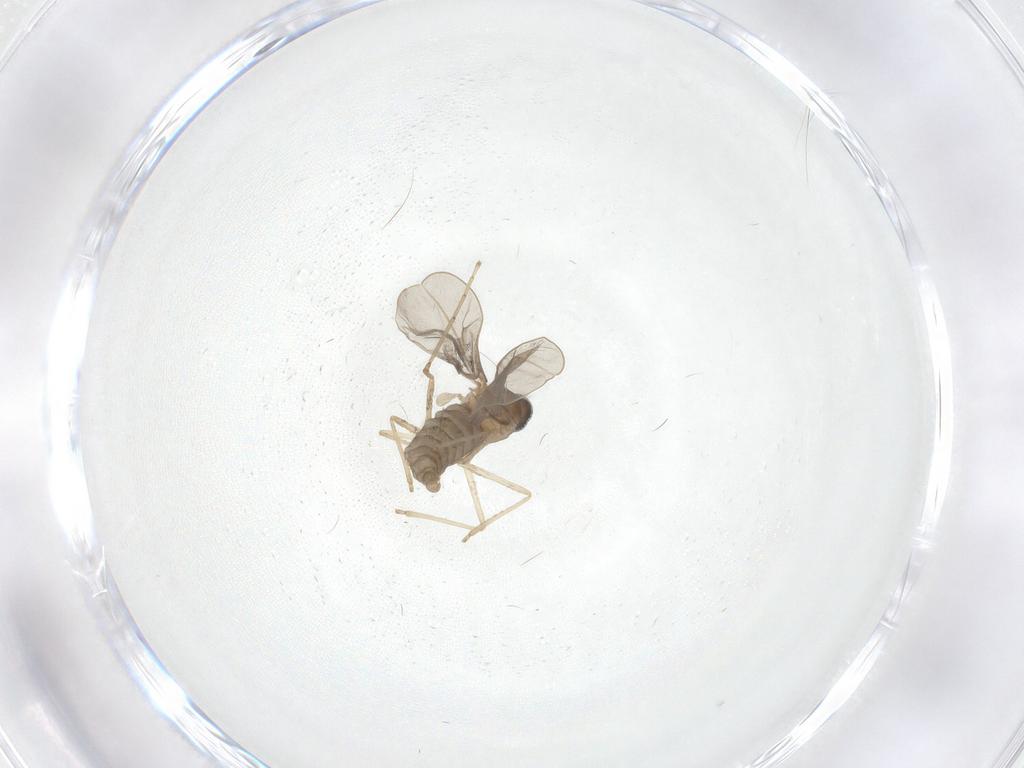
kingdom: Animalia
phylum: Arthropoda
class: Insecta
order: Diptera
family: Cecidomyiidae
